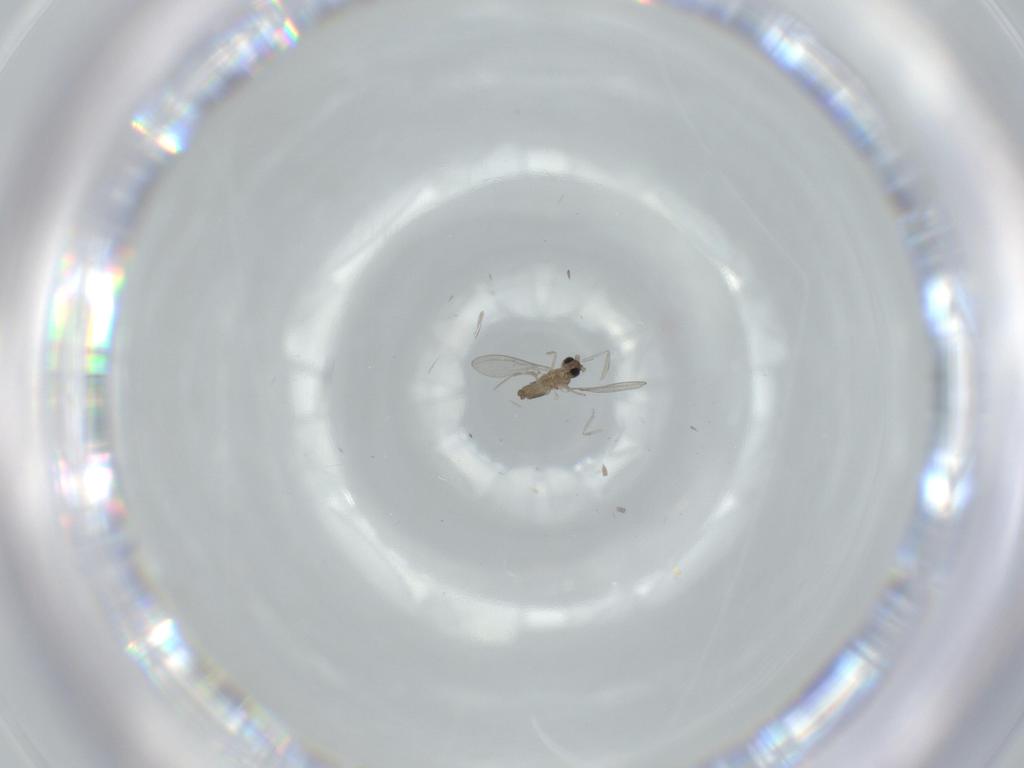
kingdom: Animalia
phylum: Arthropoda
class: Insecta
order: Diptera
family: Cecidomyiidae
